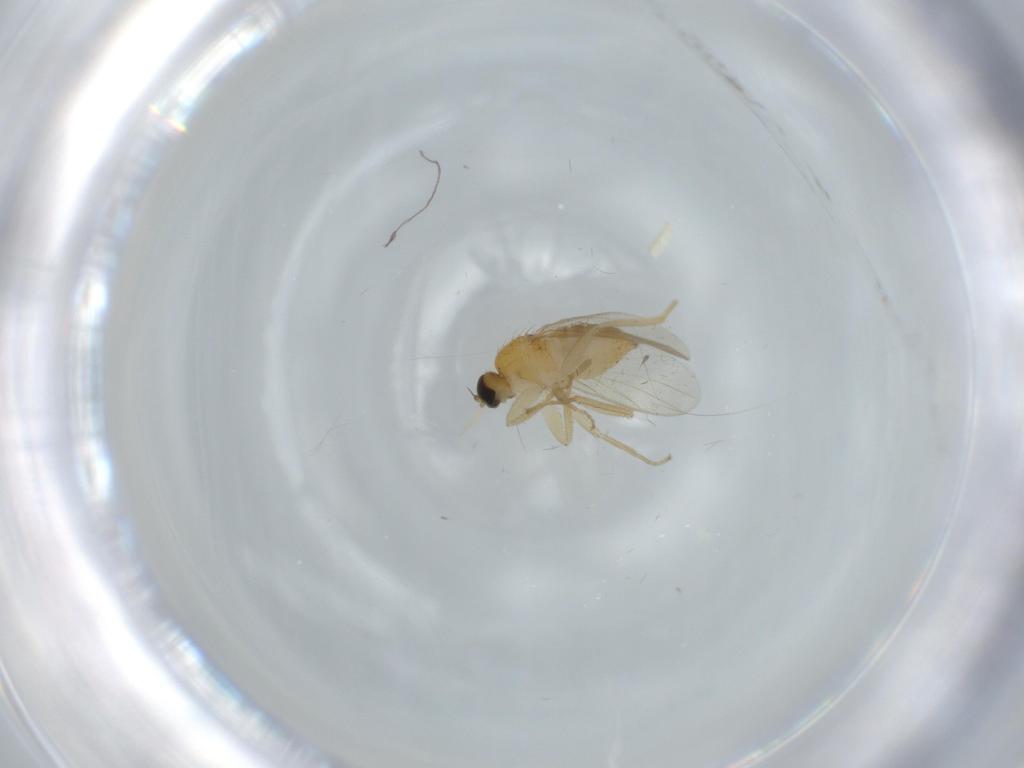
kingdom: Animalia
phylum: Arthropoda
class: Insecta
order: Diptera
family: Hybotidae
